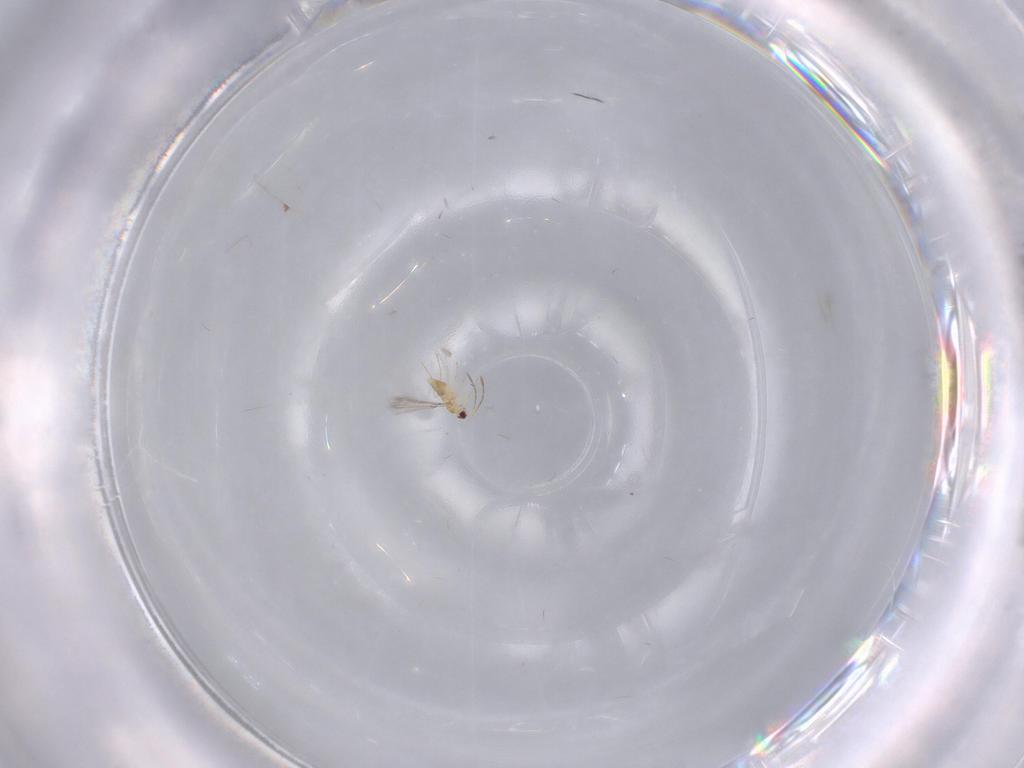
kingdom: Animalia
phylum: Arthropoda
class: Insecta
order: Hymenoptera
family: Mymaridae
